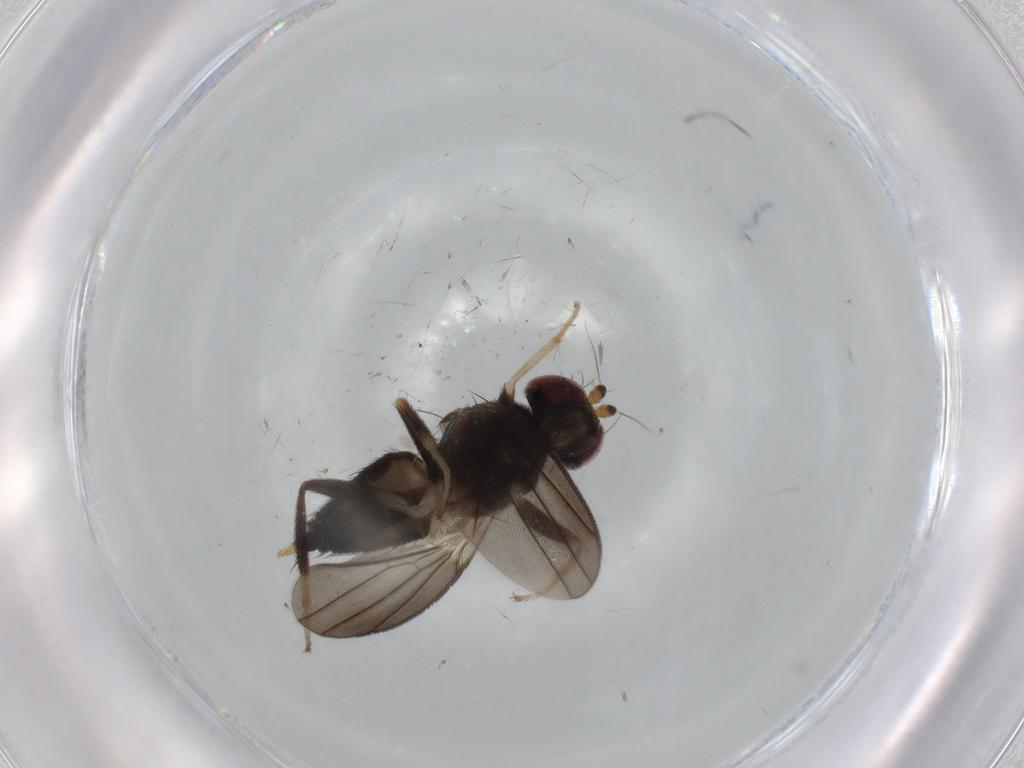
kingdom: Animalia
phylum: Arthropoda
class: Insecta
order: Diptera
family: Clusiidae
